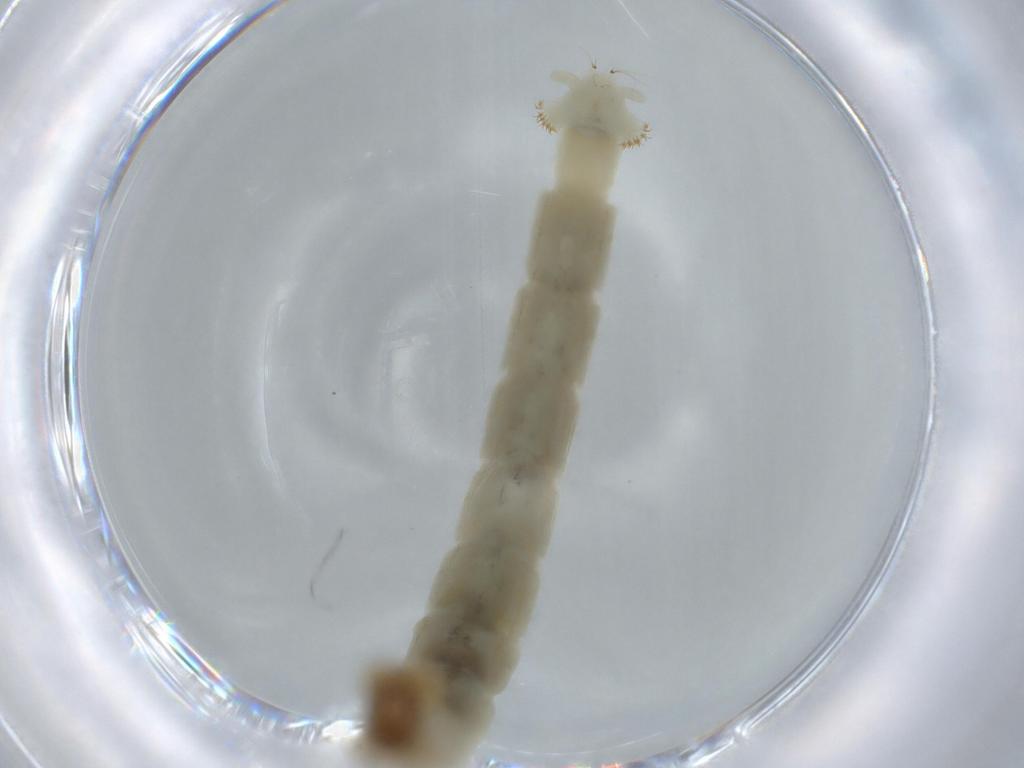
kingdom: Animalia
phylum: Arthropoda
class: Insecta
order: Diptera
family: Chironomidae
